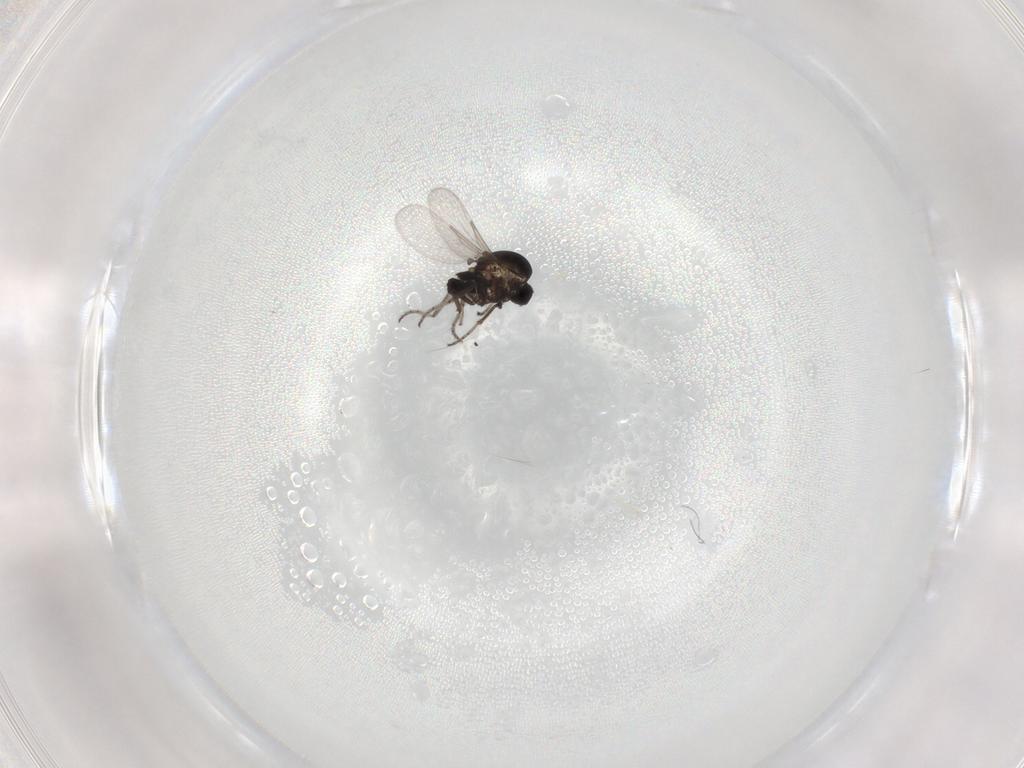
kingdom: Animalia
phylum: Arthropoda
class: Insecta
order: Diptera
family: Ceratopogonidae
